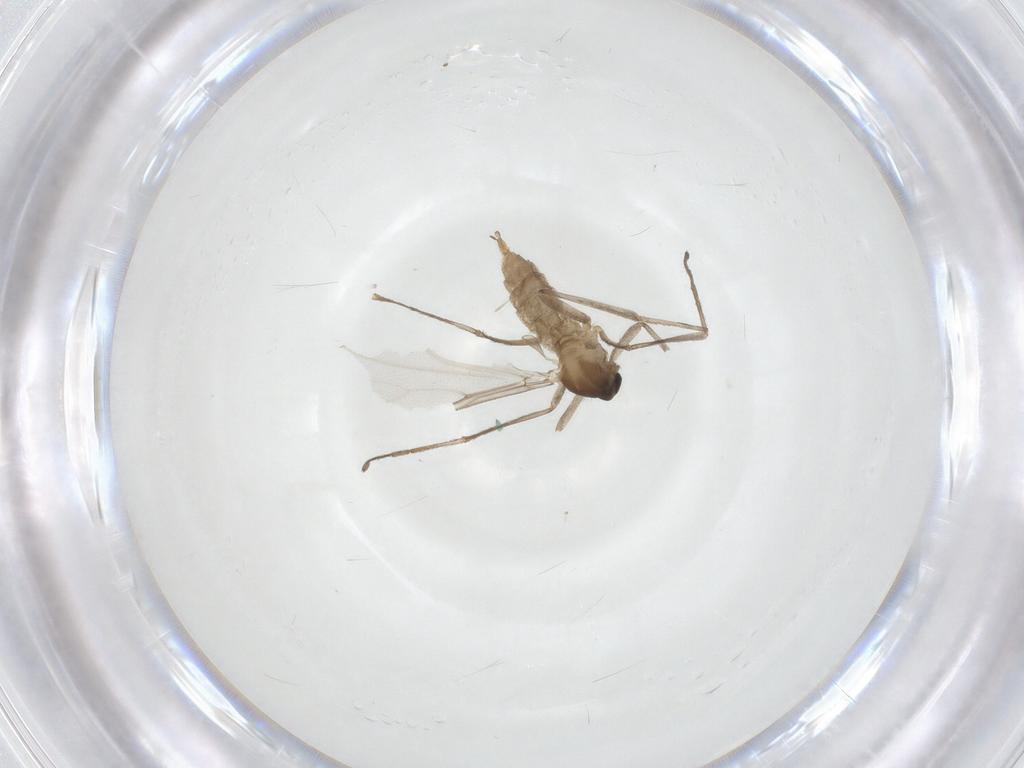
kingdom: Animalia
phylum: Arthropoda
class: Insecta
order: Diptera
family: Cecidomyiidae
